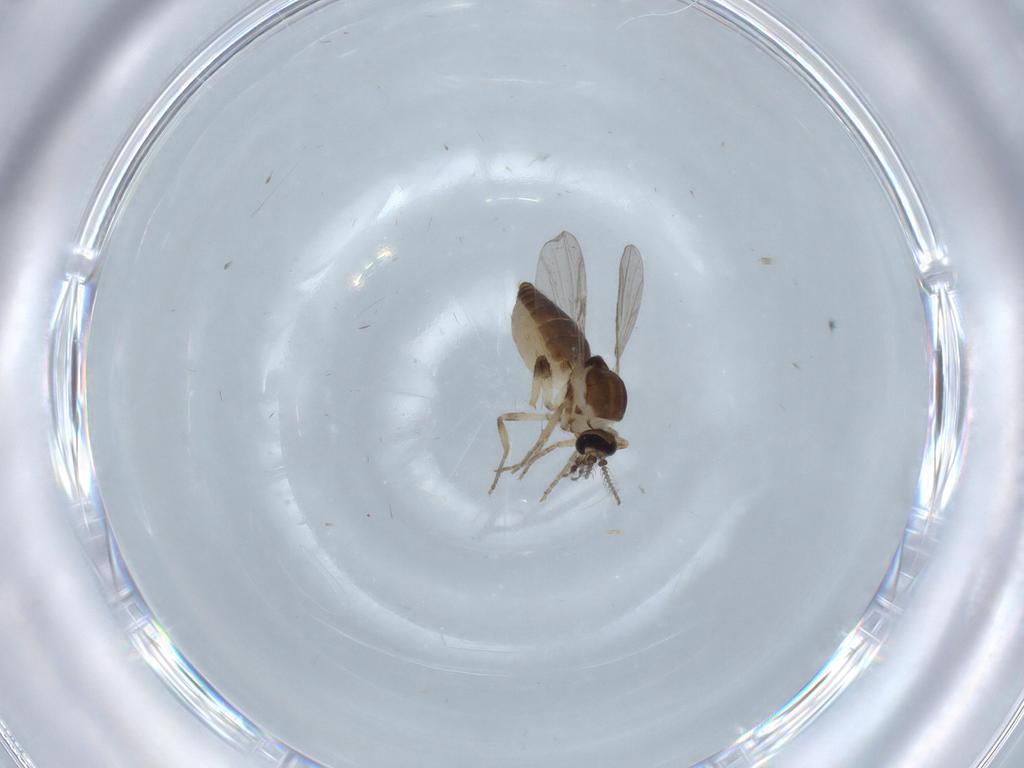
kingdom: Animalia
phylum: Arthropoda
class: Insecta
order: Diptera
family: Ceratopogonidae
